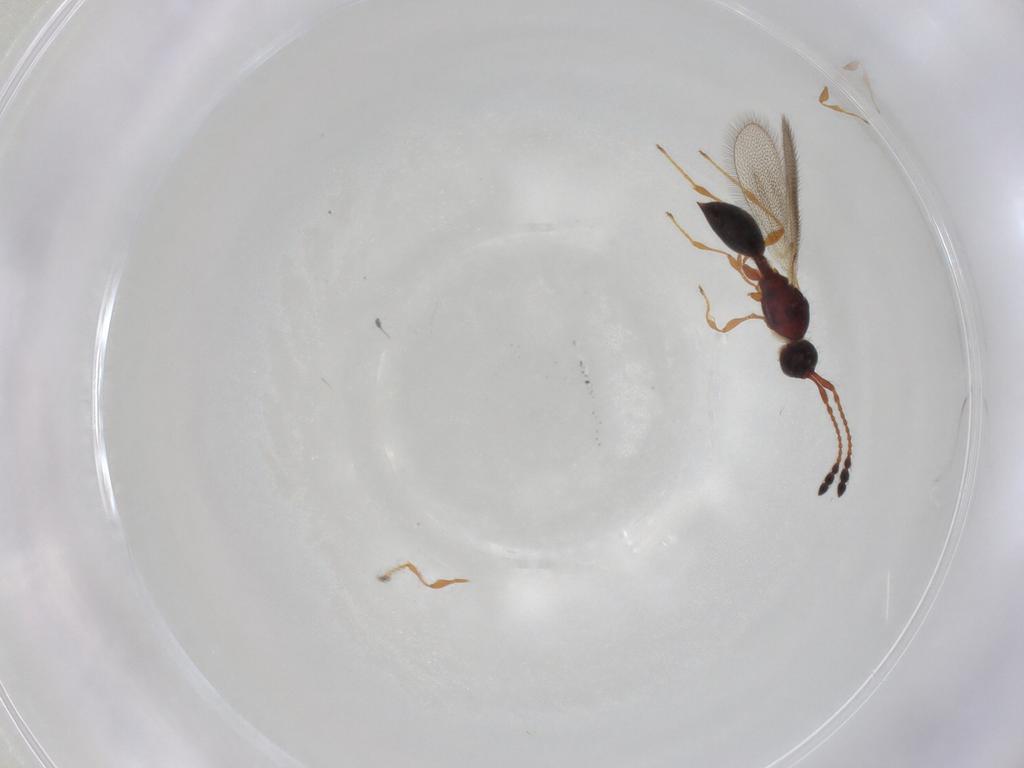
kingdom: Animalia
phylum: Arthropoda
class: Insecta
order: Hymenoptera
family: Diapriidae
